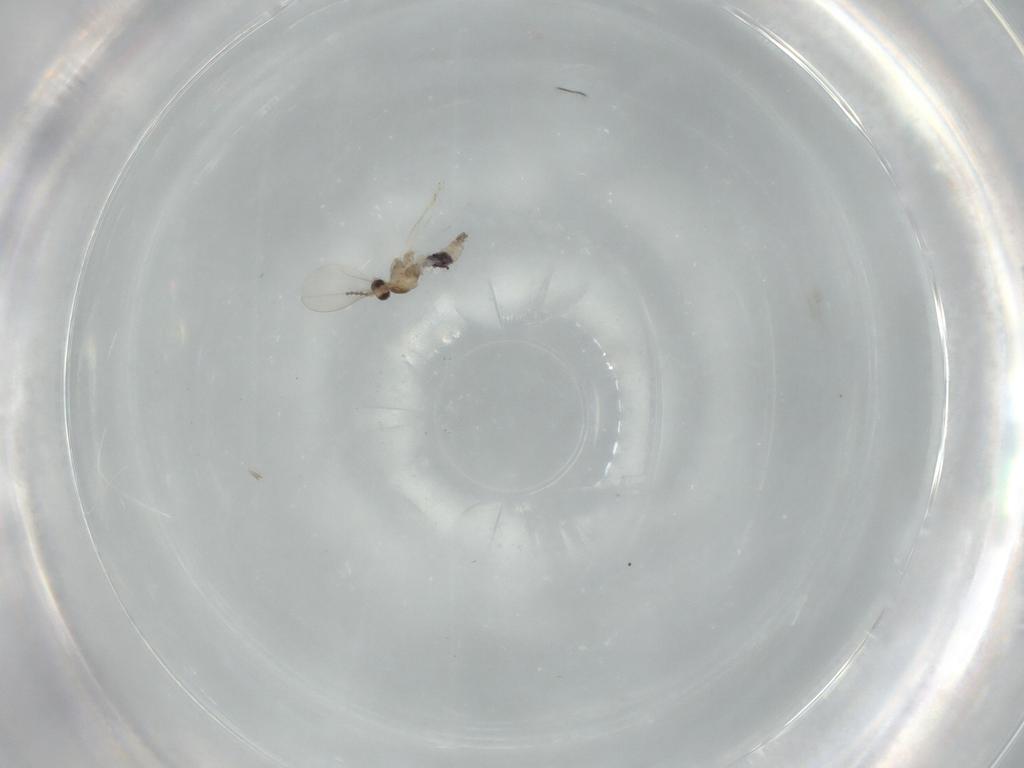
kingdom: Animalia
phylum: Arthropoda
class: Insecta
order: Diptera
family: Cecidomyiidae
